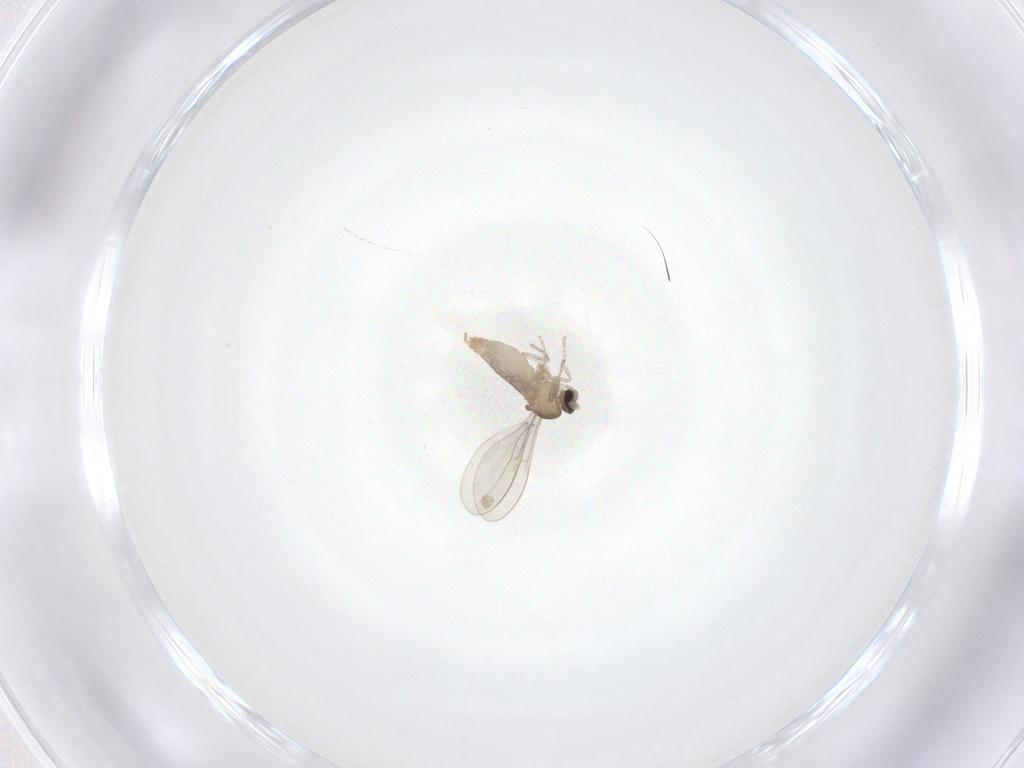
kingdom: Animalia
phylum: Arthropoda
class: Insecta
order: Diptera
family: Cecidomyiidae
